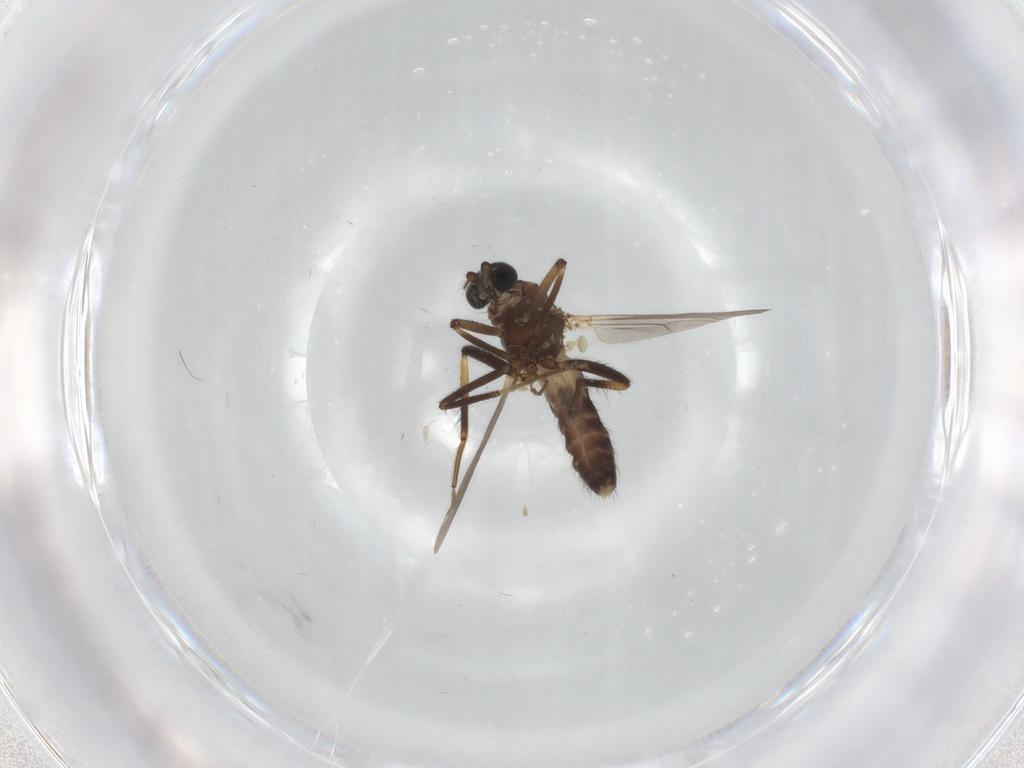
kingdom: Animalia
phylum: Arthropoda
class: Insecta
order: Diptera
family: Ceratopogonidae
